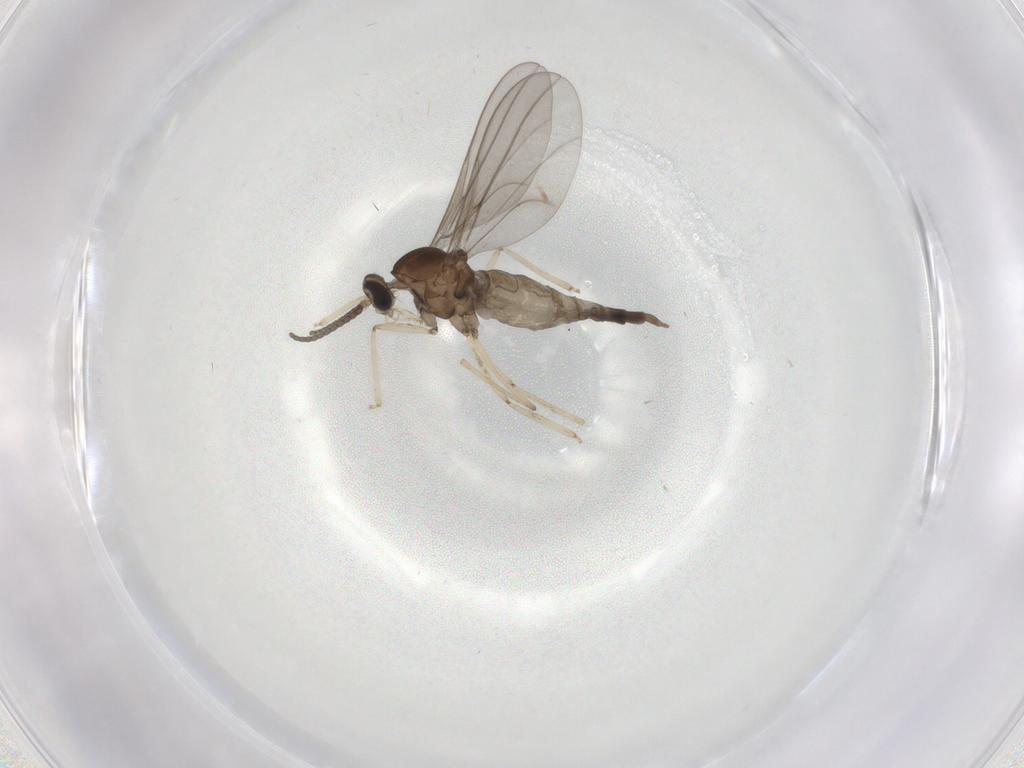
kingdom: Animalia
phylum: Arthropoda
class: Insecta
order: Diptera
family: Cecidomyiidae
